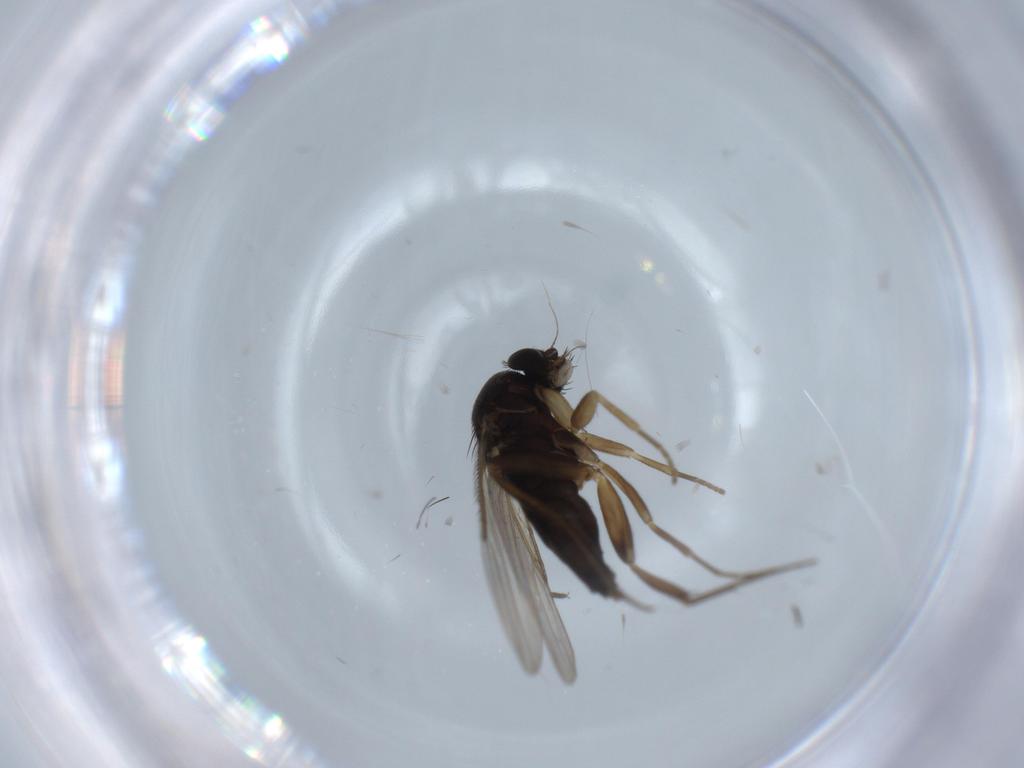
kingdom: Animalia
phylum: Arthropoda
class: Insecta
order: Diptera
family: Phoridae
